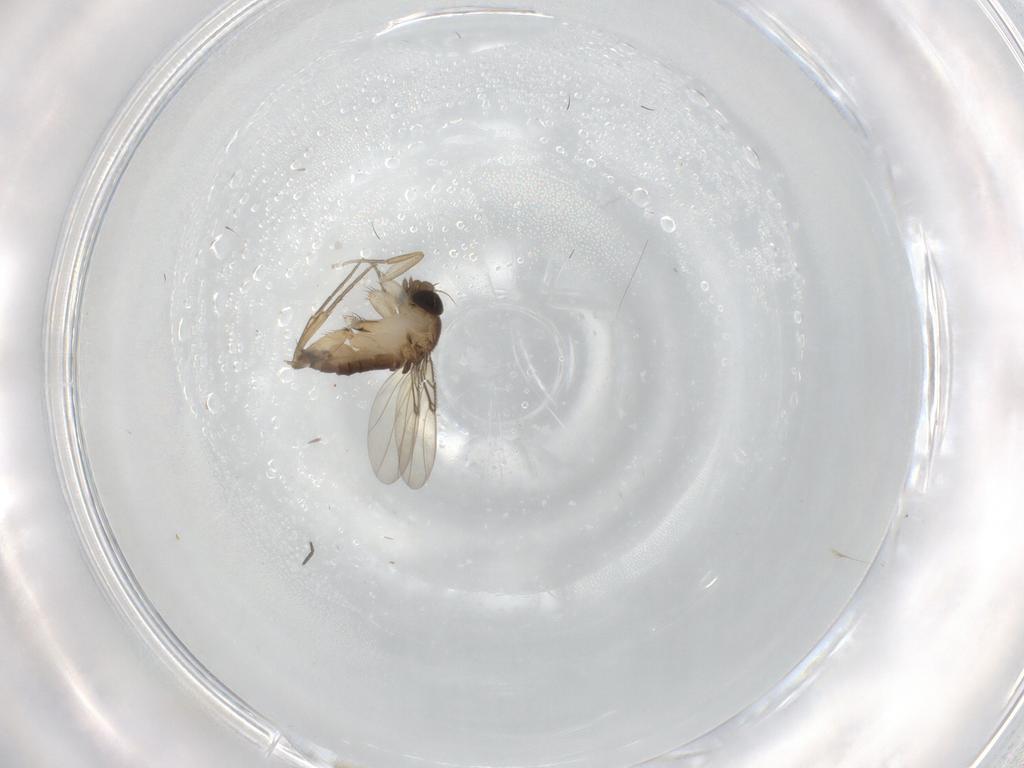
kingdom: Animalia
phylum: Arthropoda
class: Insecta
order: Diptera
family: Phoridae
